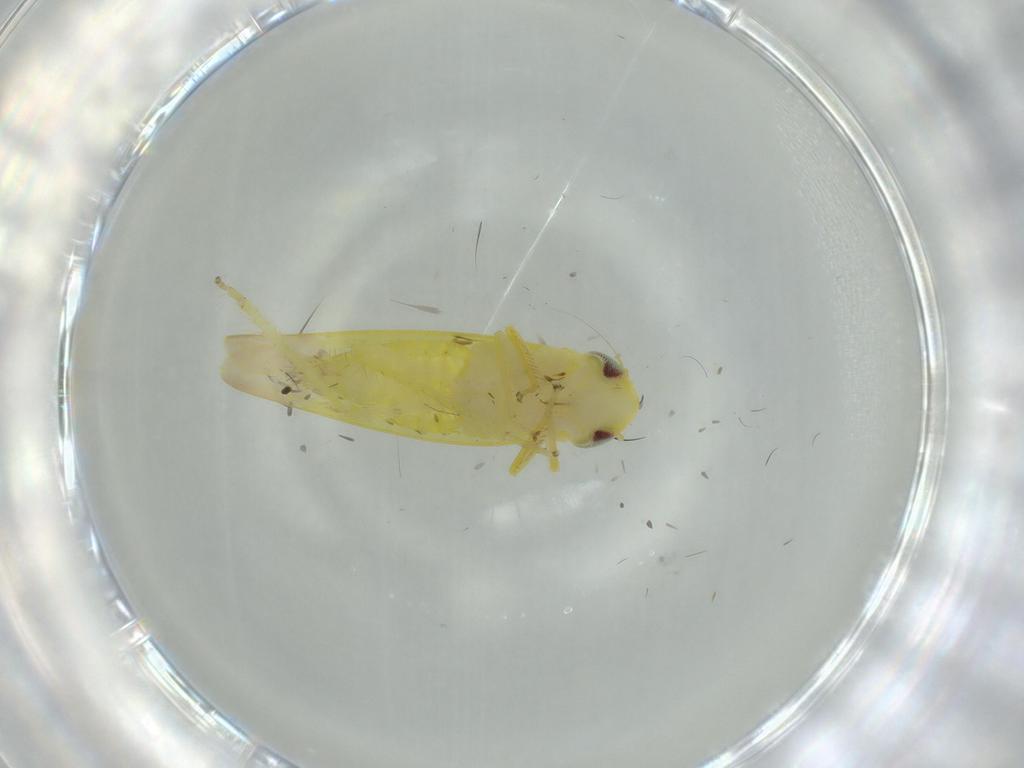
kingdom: Animalia
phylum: Arthropoda
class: Insecta
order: Hemiptera
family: Cicadellidae
